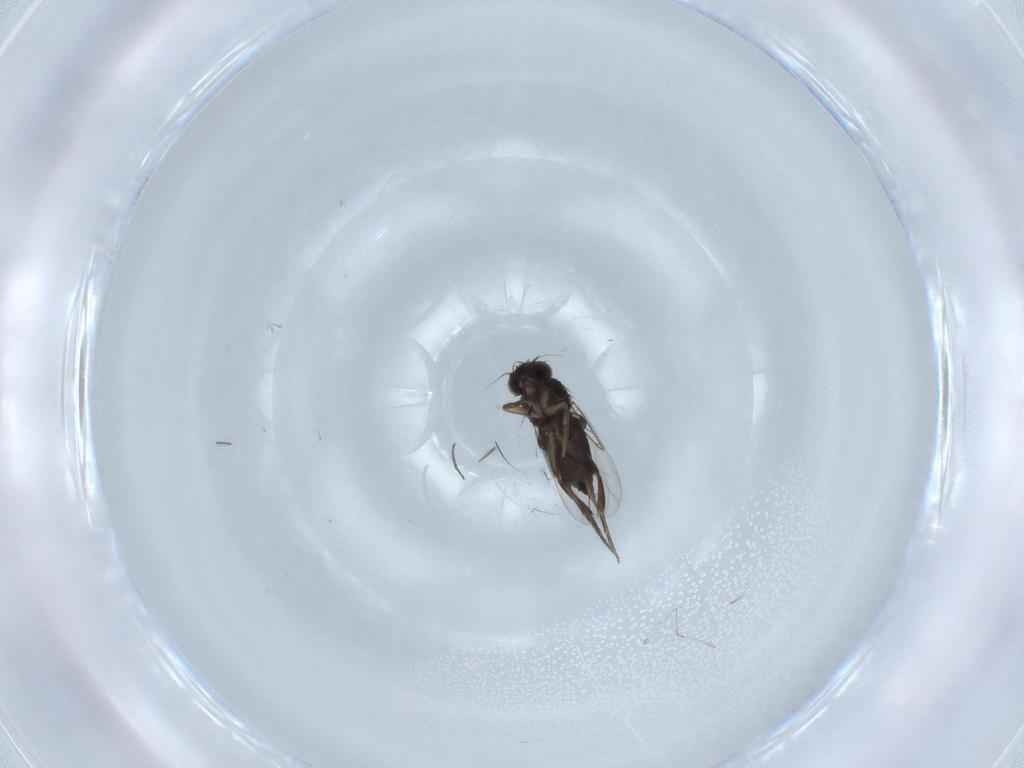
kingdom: Animalia
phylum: Arthropoda
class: Insecta
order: Diptera
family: Phoridae
